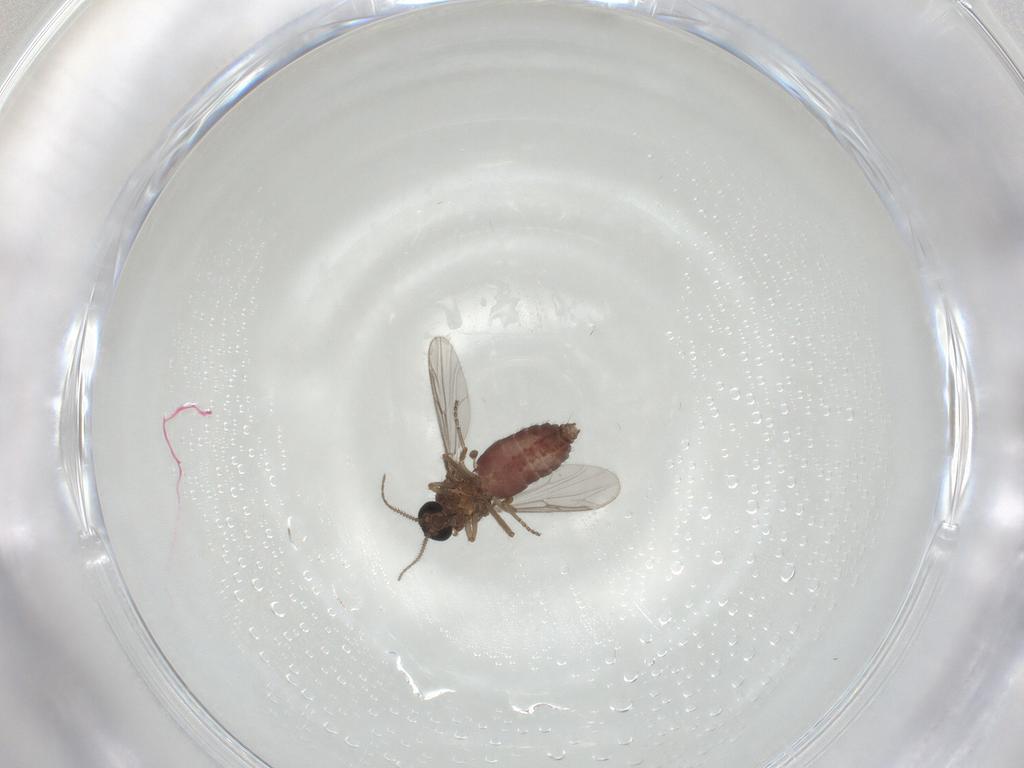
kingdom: Animalia
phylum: Arthropoda
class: Insecta
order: Diptera
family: Ceratopogonidae
